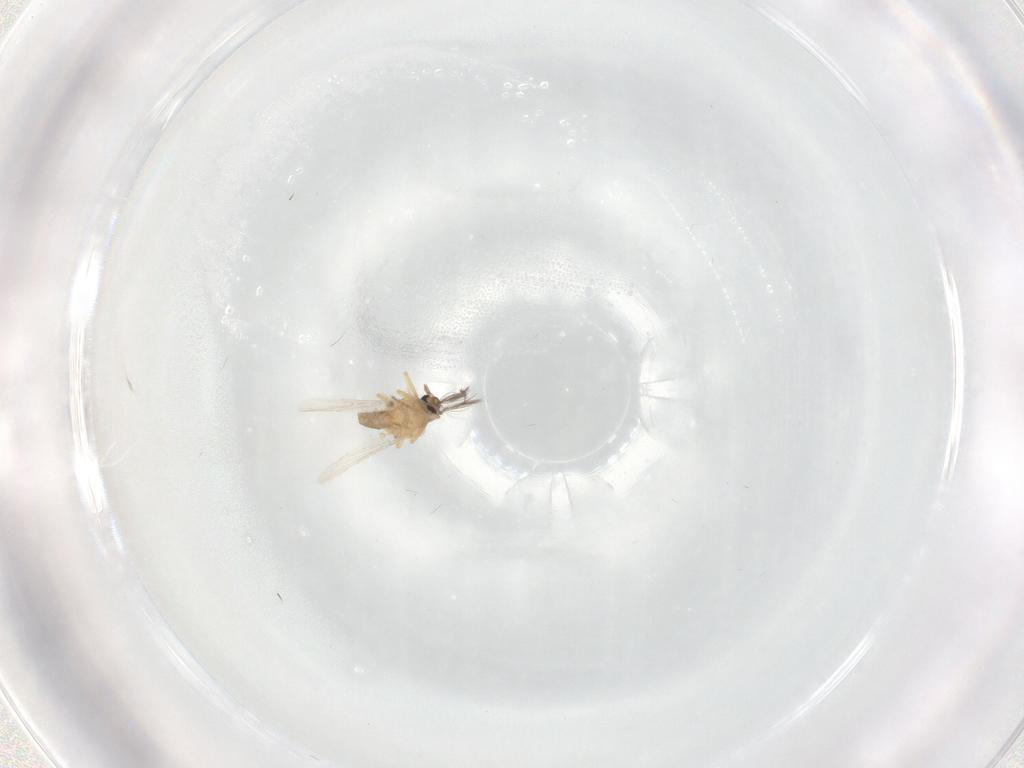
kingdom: Animalia
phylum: Arthropoda
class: Insecta
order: Diptera
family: Ceratopogonidae
